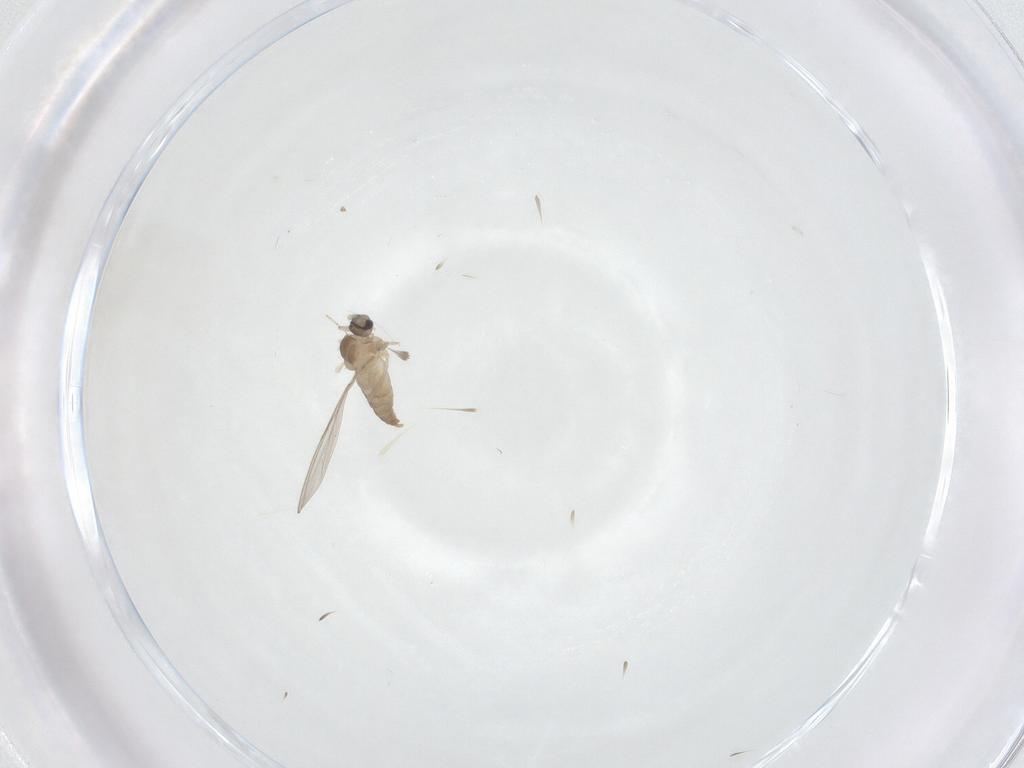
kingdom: Animalia
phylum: Arthropoda
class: Insecta
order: Diptera
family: Cecidomyiidae
